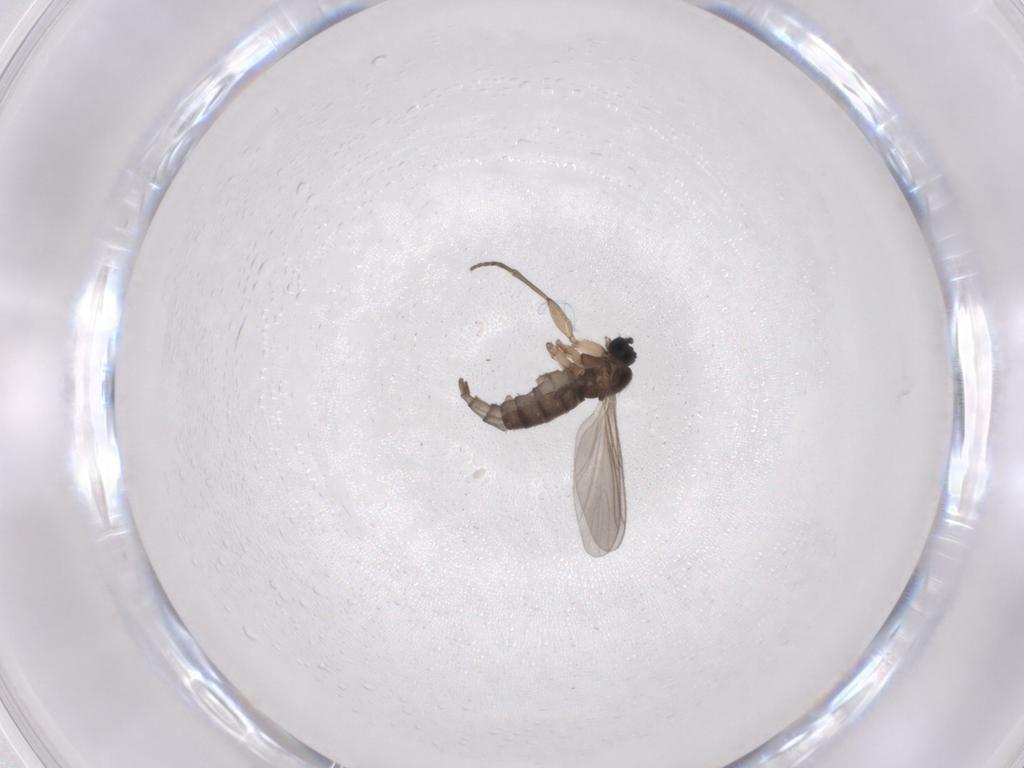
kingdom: Animalia
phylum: Arthropoda
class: Insecta
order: Diptera
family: Sciaridae
